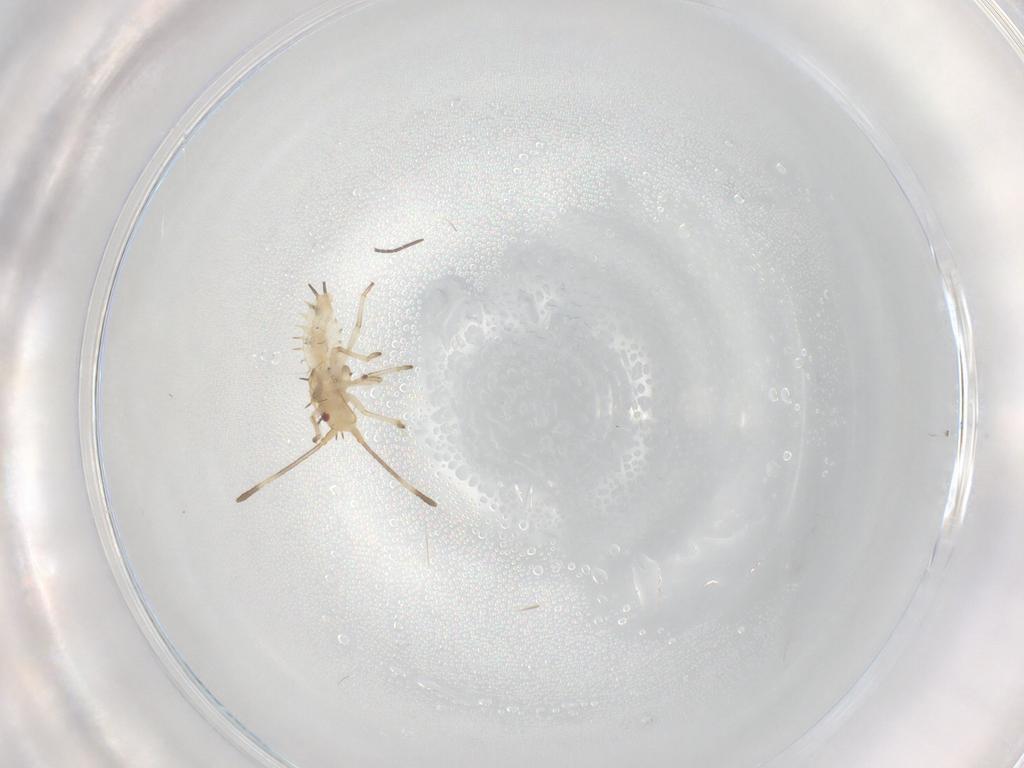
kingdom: Animalia
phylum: Arthropoda
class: Insecta
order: Hemiptera
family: Tingidae
